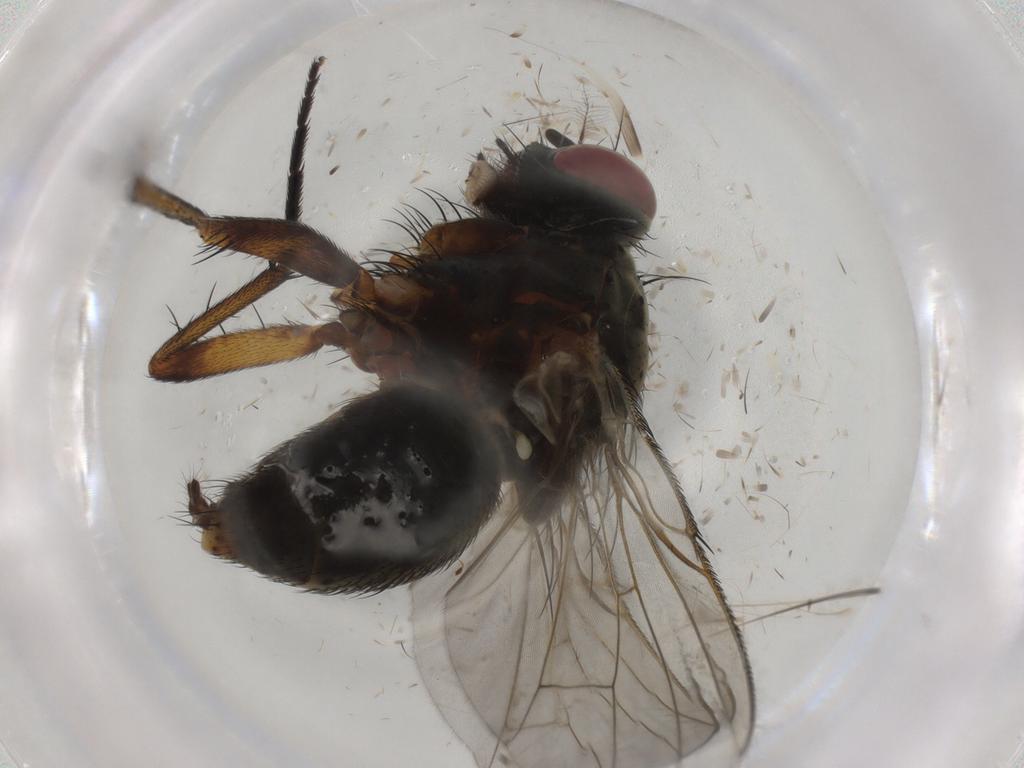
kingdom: Animalia
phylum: Arthropoda
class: Insecta
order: Diptera
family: Muscidae
